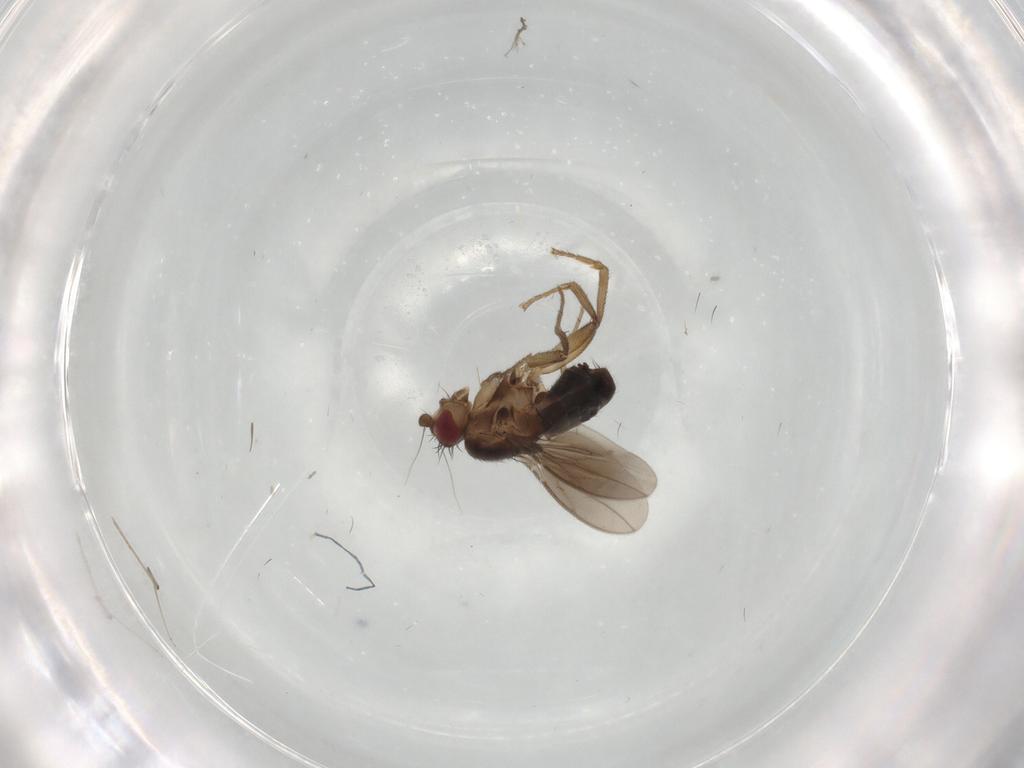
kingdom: Animalia
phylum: Arthropoda
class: Insecta
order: Diptera
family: Sphaeroceridae
